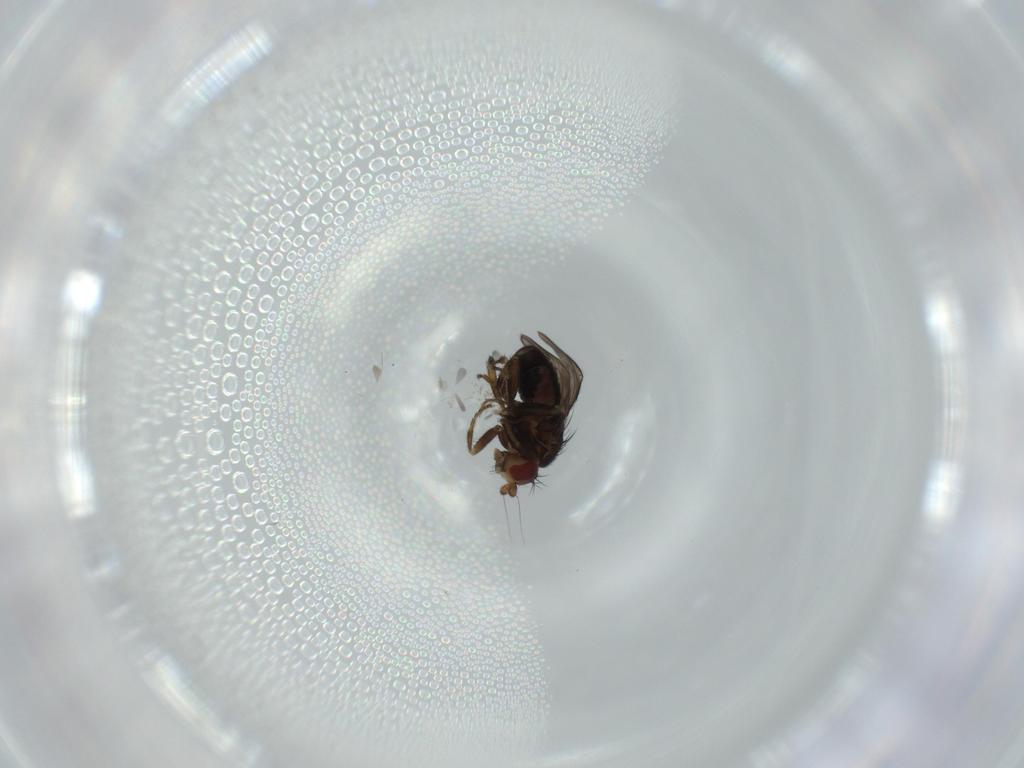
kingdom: Animalia
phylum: Arthropoda
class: Insecta
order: Diptera
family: Sphaeroceridae
